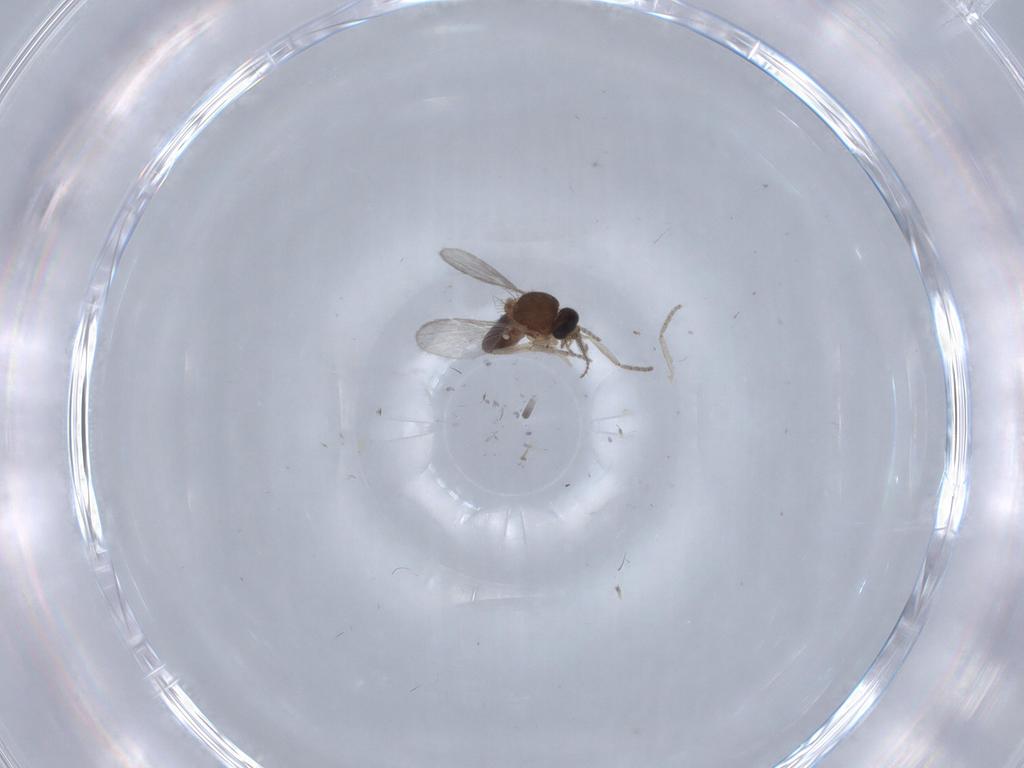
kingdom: Animalia
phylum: Arthropoda
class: Insecta
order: Diptera
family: Ceratopogonidae
